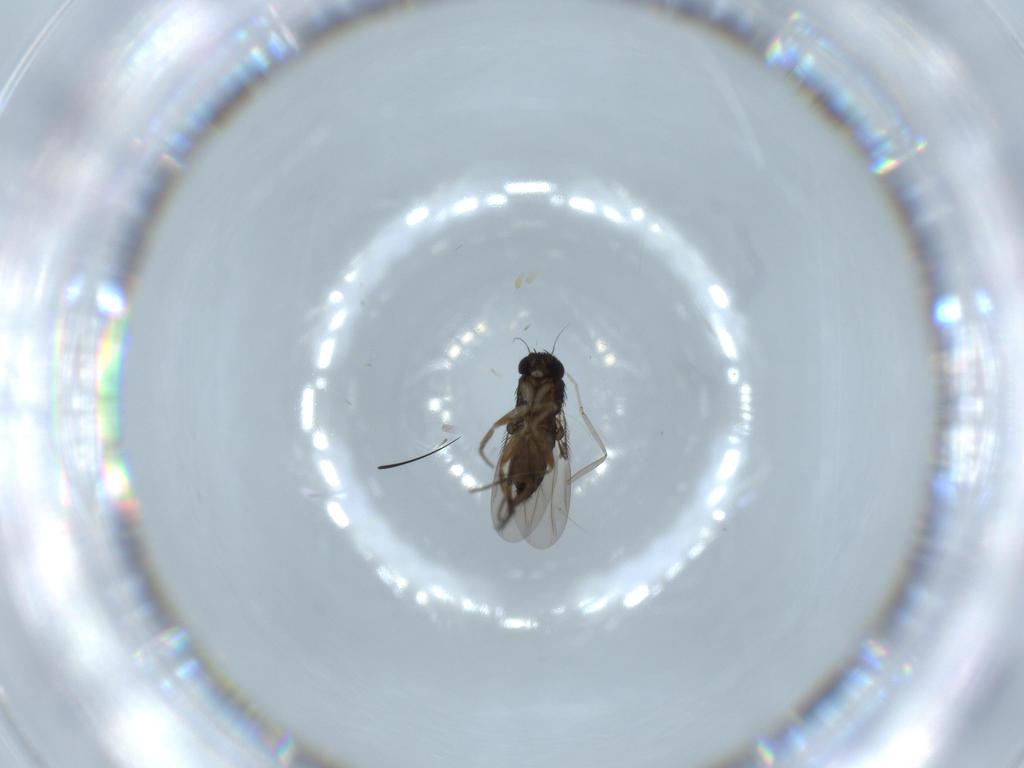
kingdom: Animalia
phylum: Arthropoda
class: Insecta
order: Diptera
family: Phoridae
